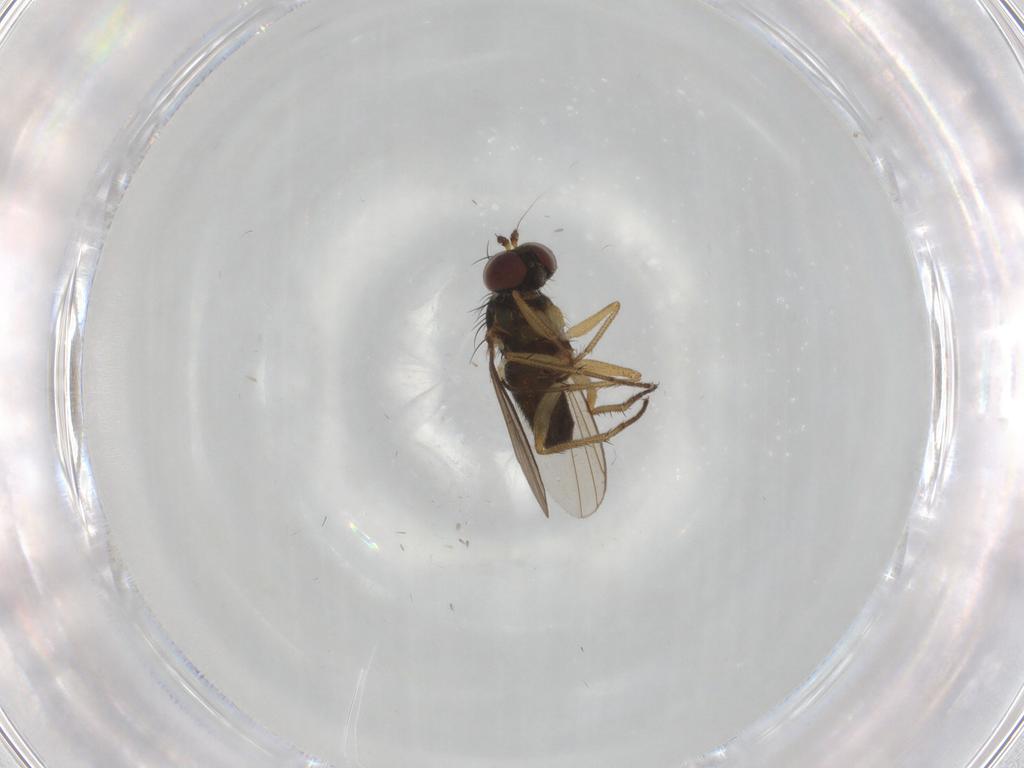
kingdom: Animalia
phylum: Arthropoda
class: Insecta
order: Diptera
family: Dolichopodidae
